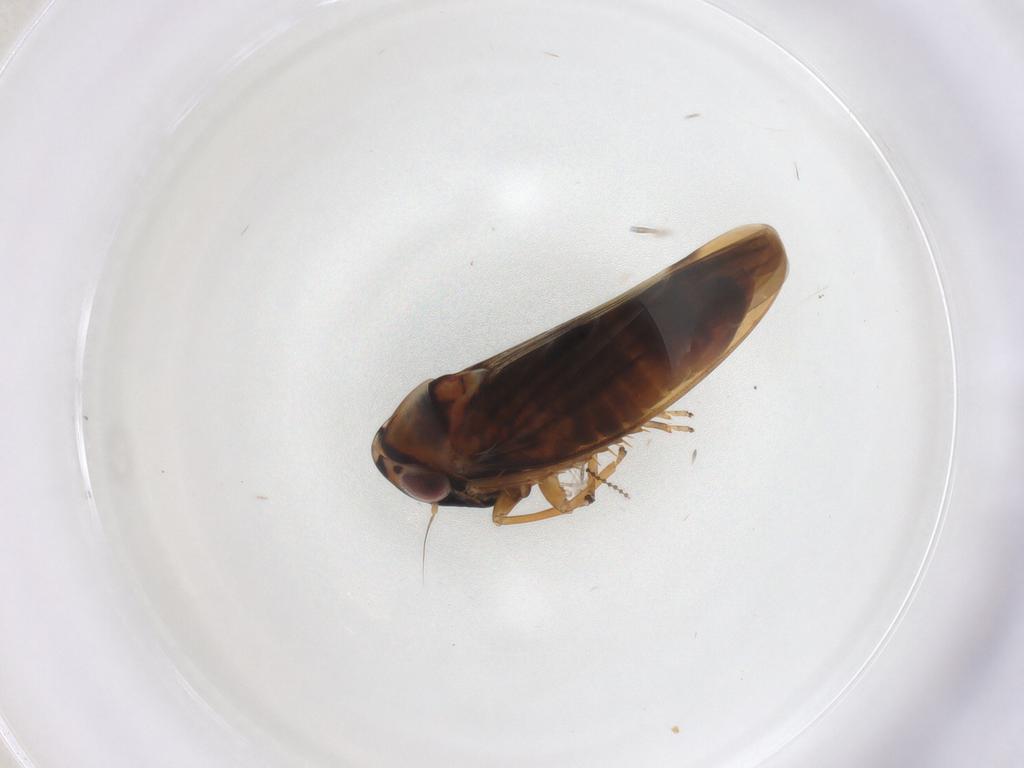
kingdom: Animalia
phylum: Arthropoda
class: Insecta
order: Hemiptera
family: Cicadellidae
